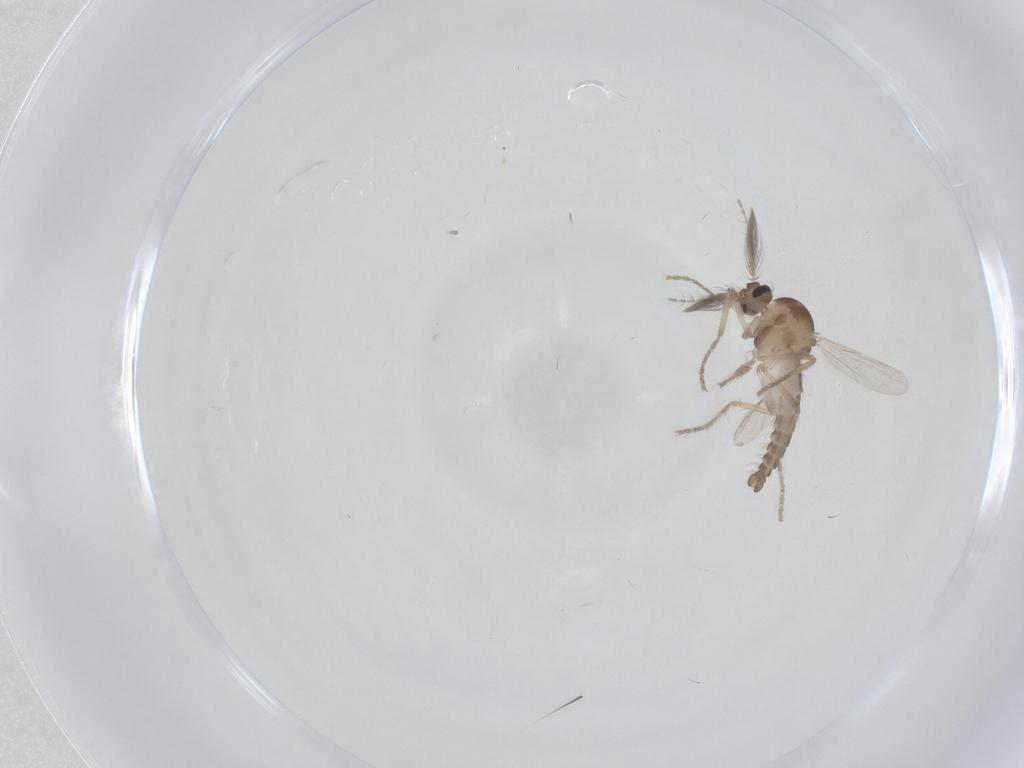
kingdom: Animalia
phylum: Arthropoda
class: Insecta
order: Diptera
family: Ceratopogonidae
